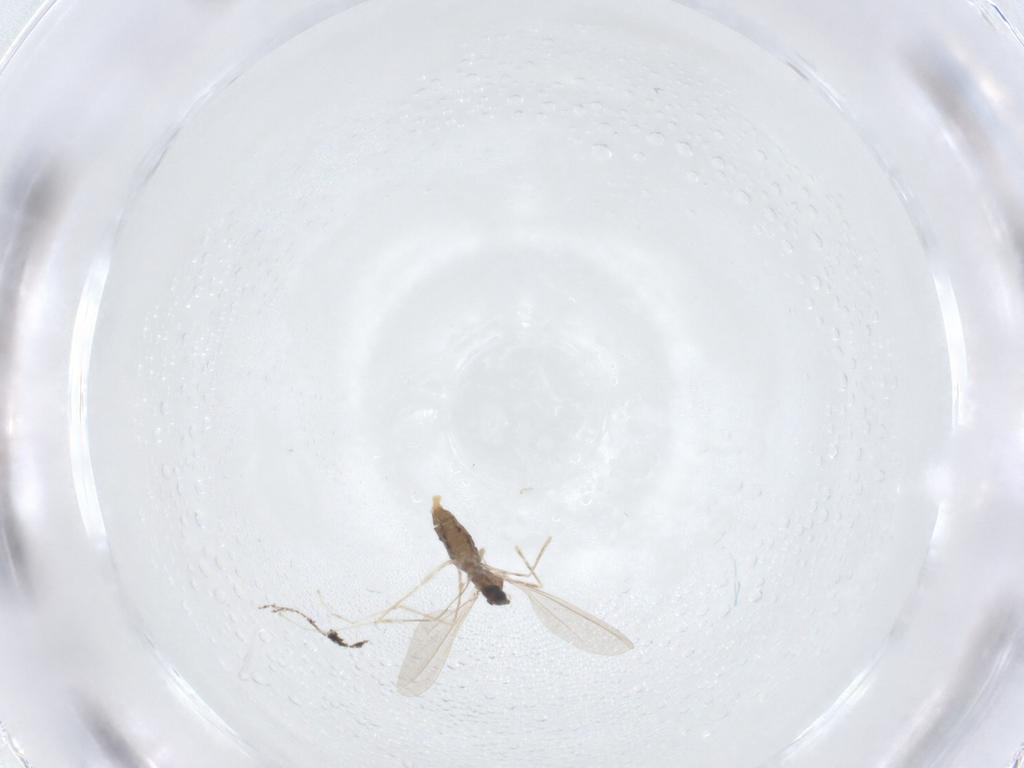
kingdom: Animalia
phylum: Arthropoda
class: Insecta
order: Diptera
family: Cecidomyiidae
